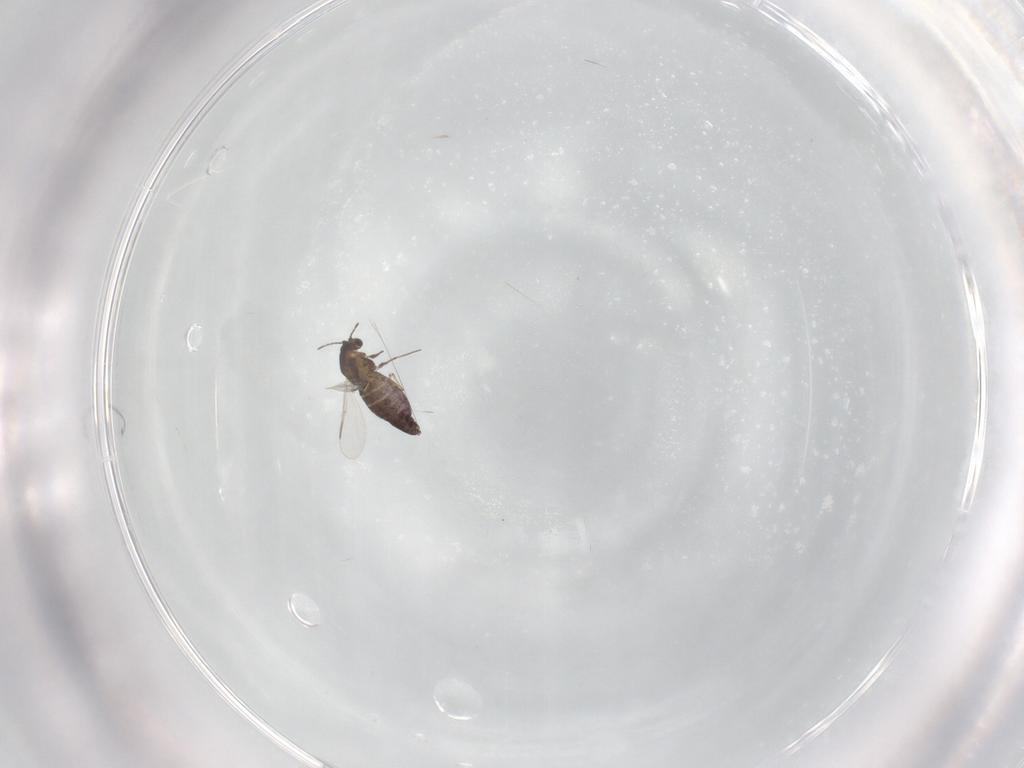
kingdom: Animalia
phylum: Arthropoda
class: Insecta
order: Diptera
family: Chironomidae
